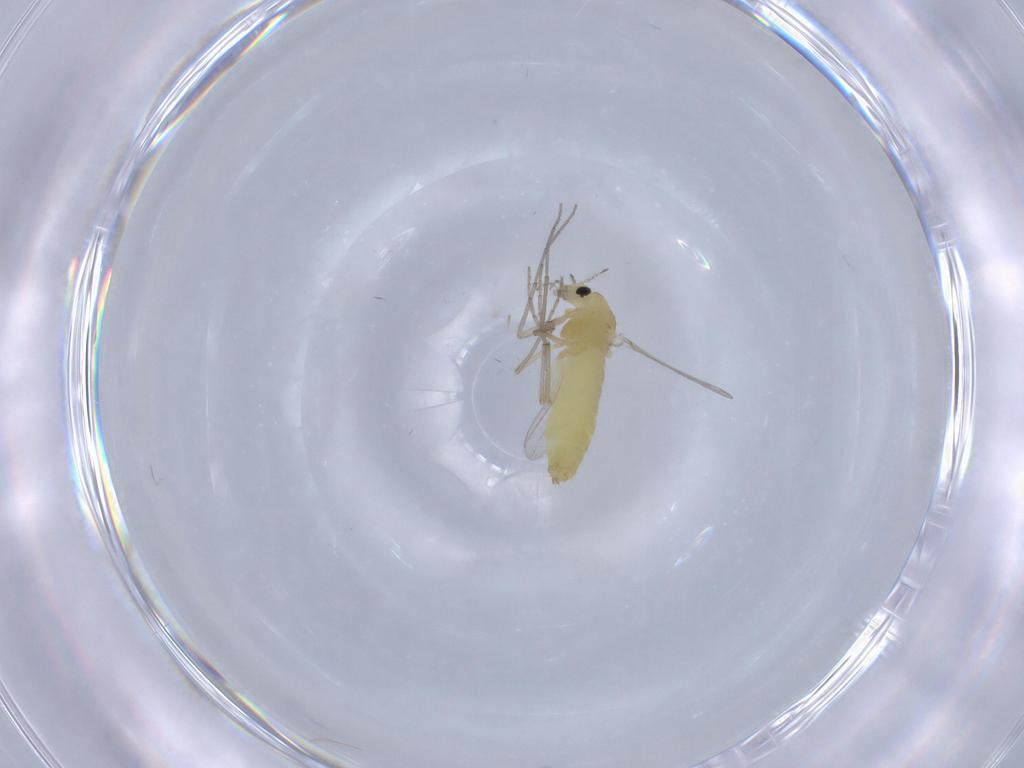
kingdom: Animalia
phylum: Arthropoda
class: Insecta
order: Diptera
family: Chironomidae
